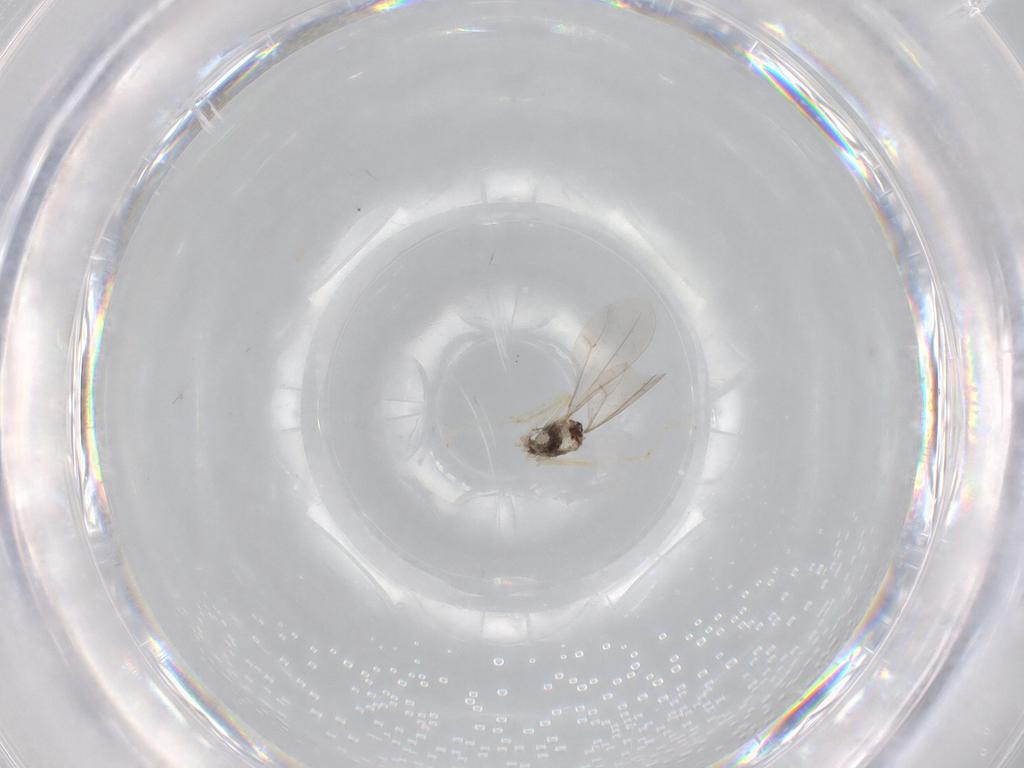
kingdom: Animalia
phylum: Arthropoda
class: Insecta
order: Diptera
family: Cecidomyiidae
